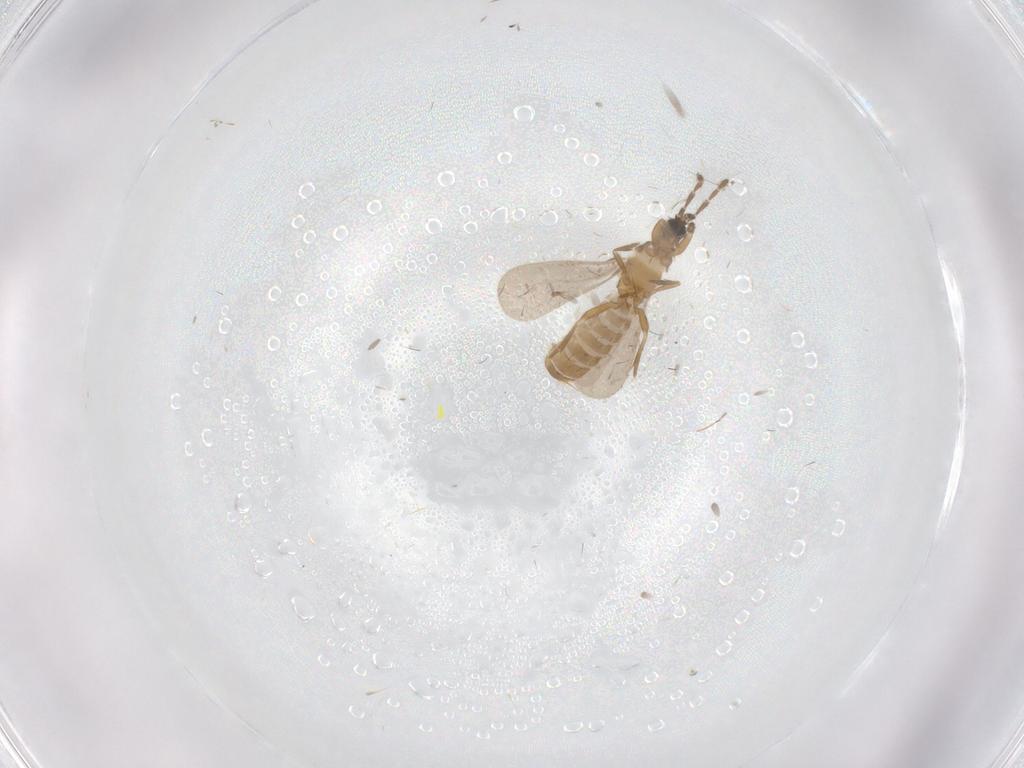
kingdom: Animalia
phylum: Arthropoda
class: Insecta
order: Hemiptera
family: Enicocephalidae
